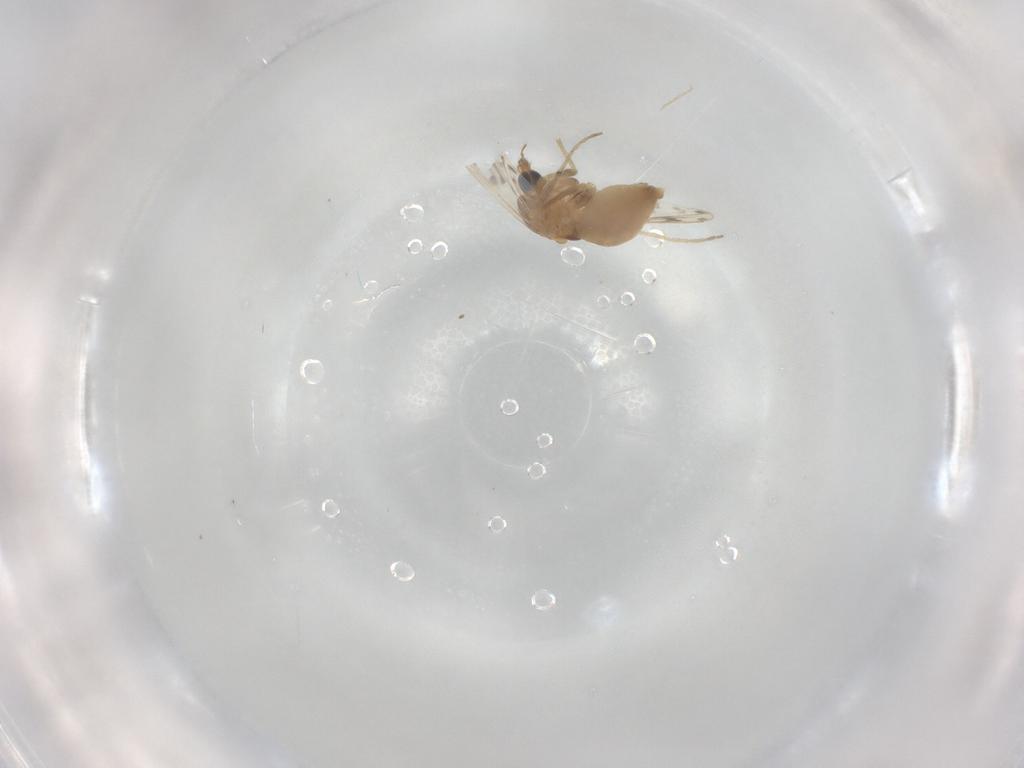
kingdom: Animalia
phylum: Arthropoda
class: Insecta
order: Diptera
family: Chironomidae
